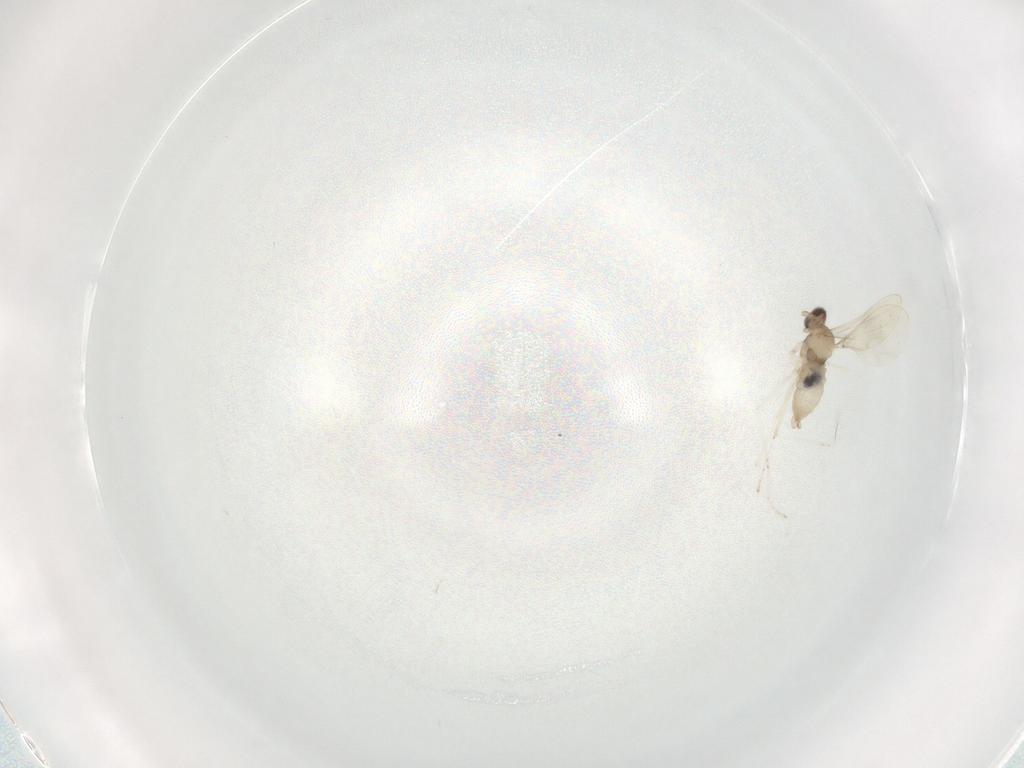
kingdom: Animalia
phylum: Arthropoda
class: Insecta
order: Diptera
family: Cecidomyiidae
